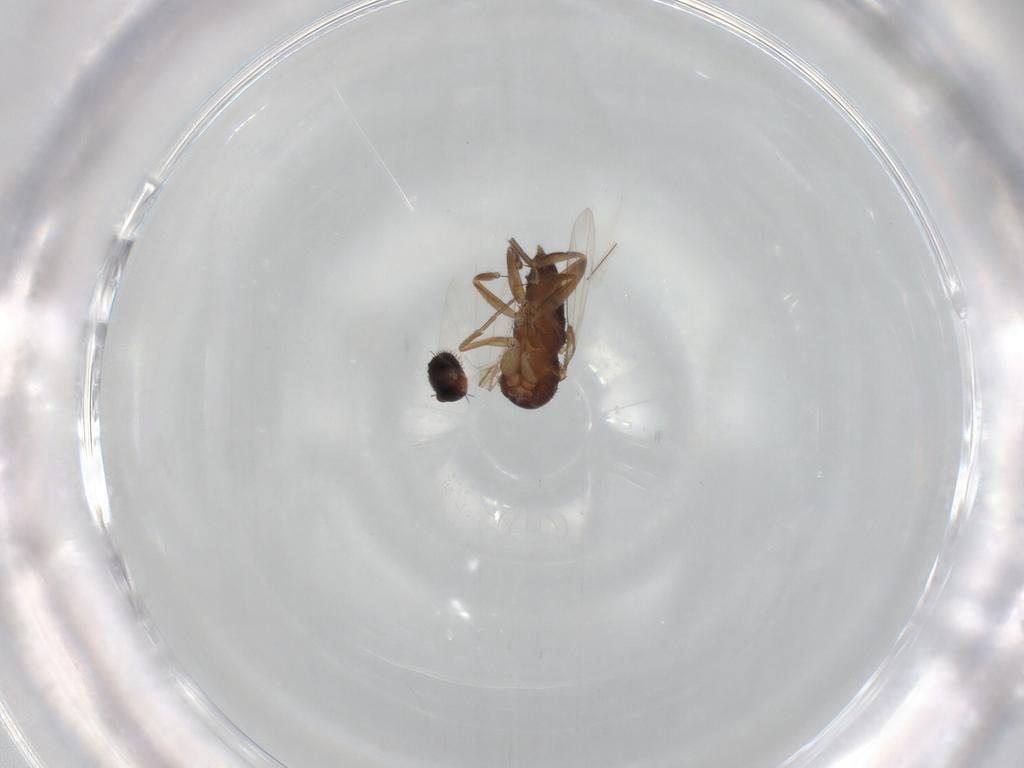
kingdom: Animalia
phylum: Arthropoda
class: Insecta
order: Diptera
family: Phoridae
